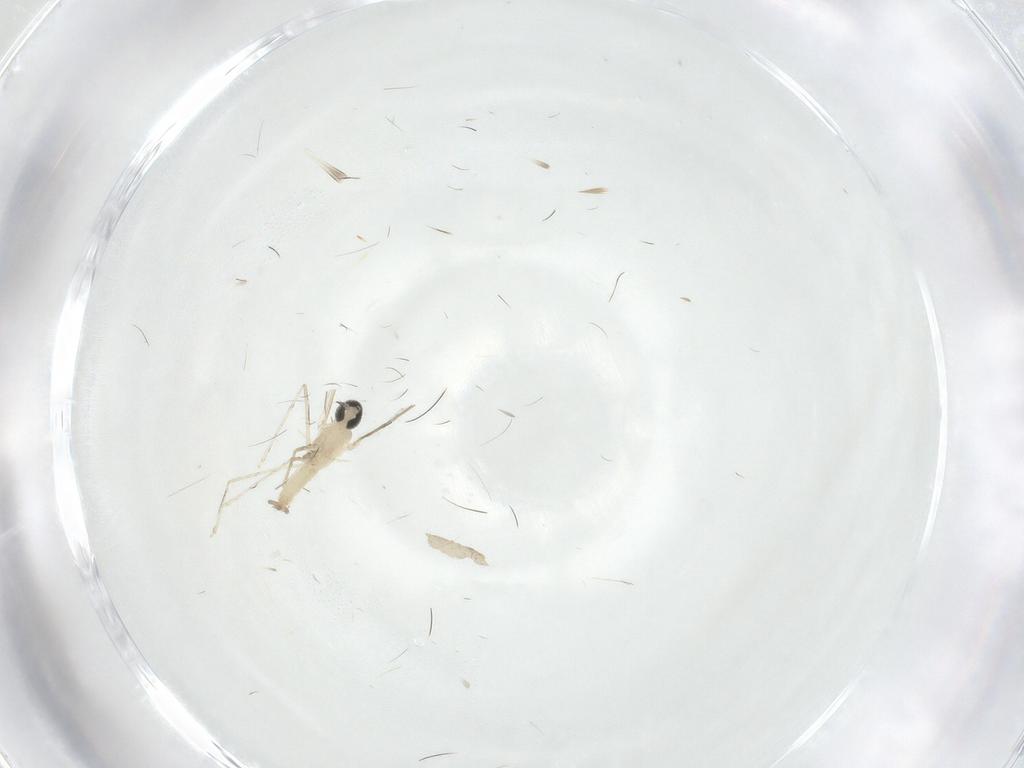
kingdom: Animalia
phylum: Arthropoda
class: Insecta
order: Diptera
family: Cecidomyiidae
